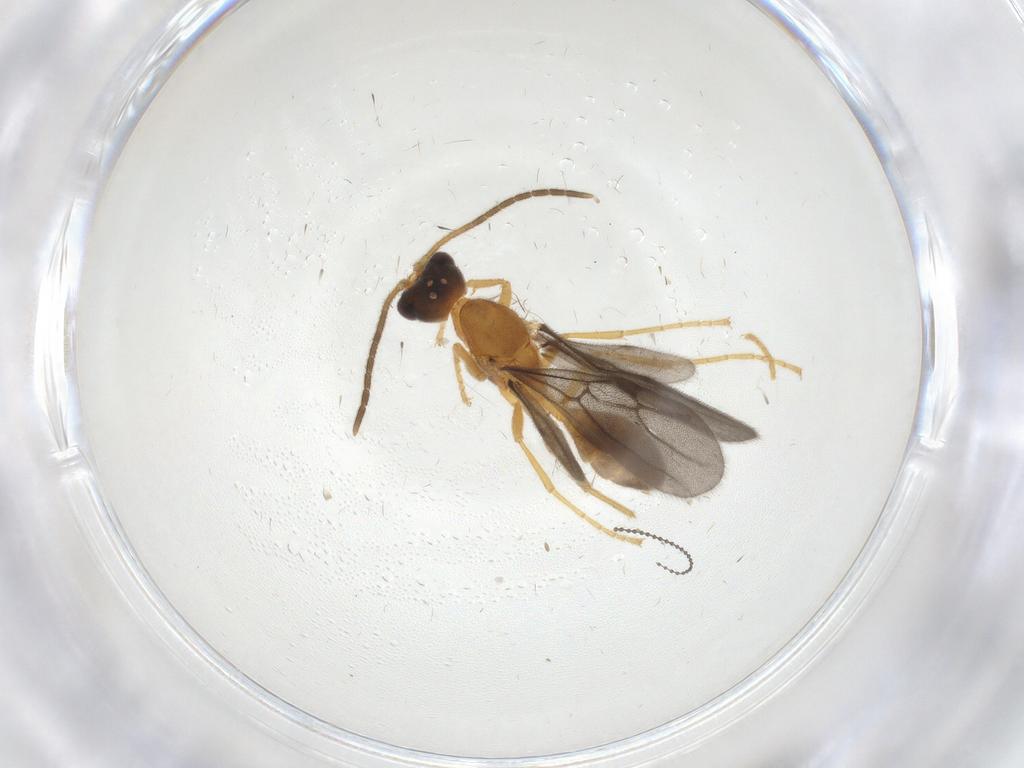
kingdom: Animalia
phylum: Arthropoda
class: Insecta
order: Hymenoptera
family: Formicidae
